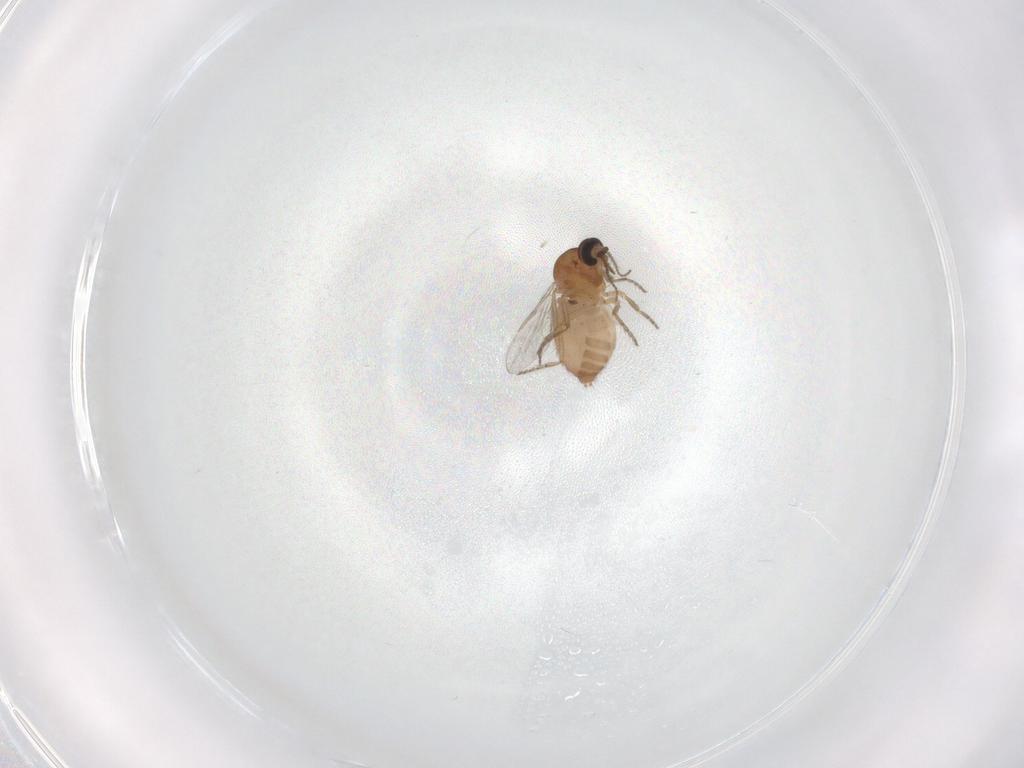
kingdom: Animalia
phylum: Arthropoda
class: Insecta
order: Diptera
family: Ceratopogonidae
